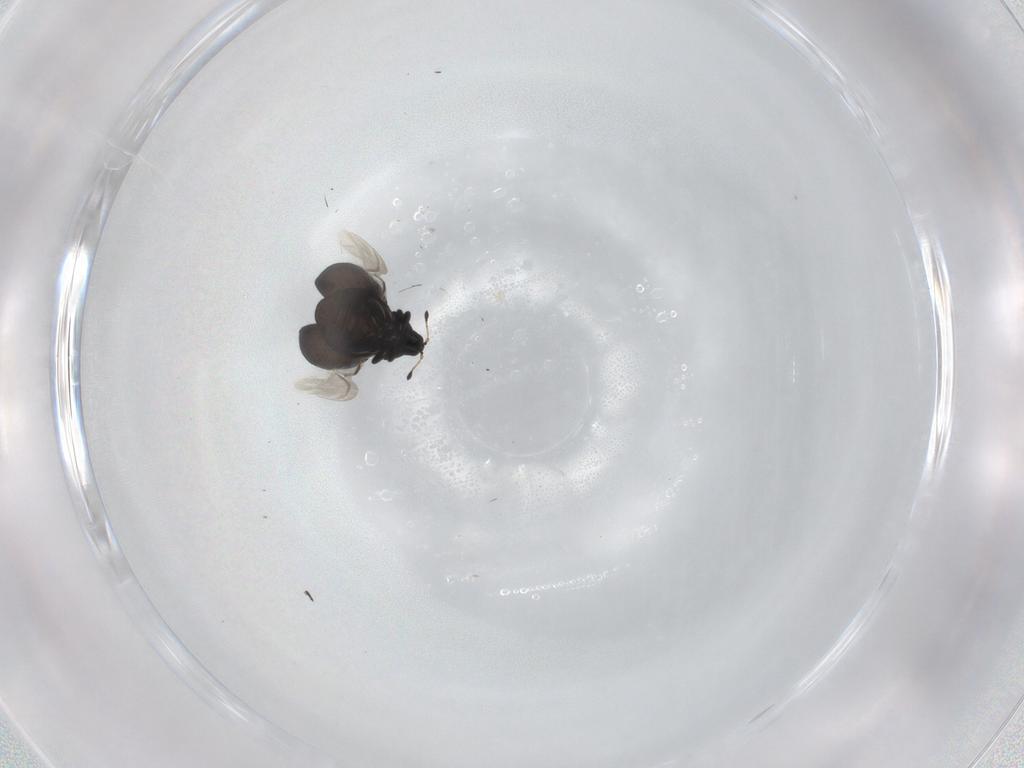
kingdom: Animalia
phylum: Arthropoda
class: Insecta
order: Coleoptera
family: Curculionidae
